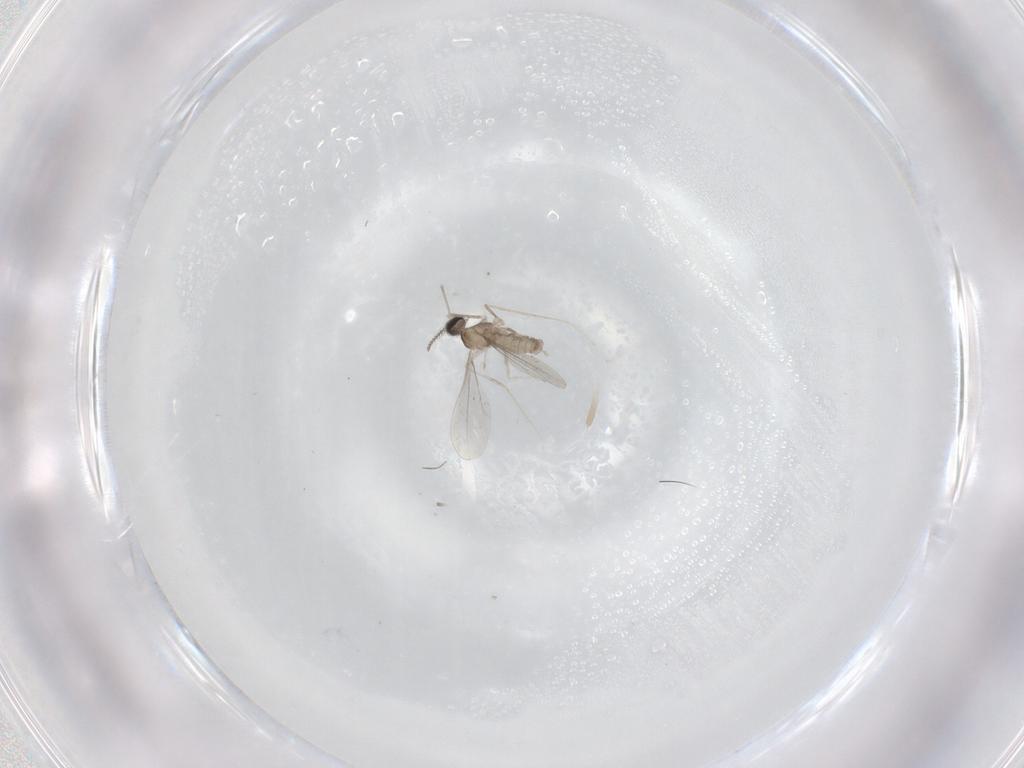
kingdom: Animalia
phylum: Arthropoda
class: Insecta
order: Diptera
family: Cecidomyiidae
